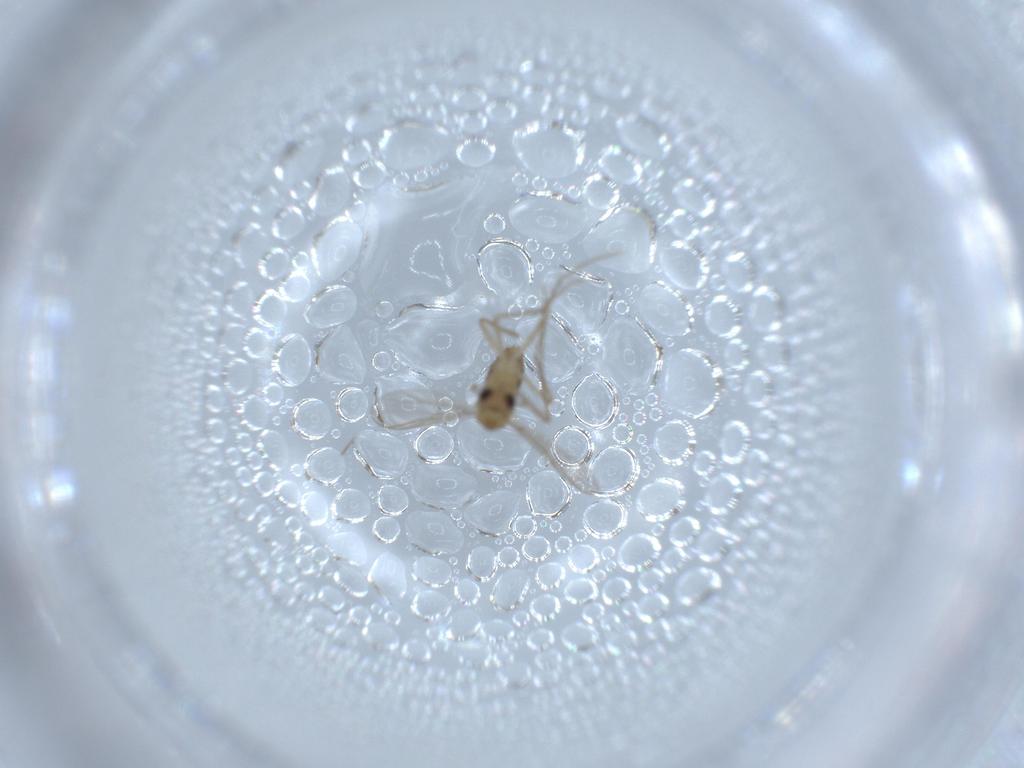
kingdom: Animalia
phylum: Arthropoda
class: Insecta
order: Diptera
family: Chironomidae
